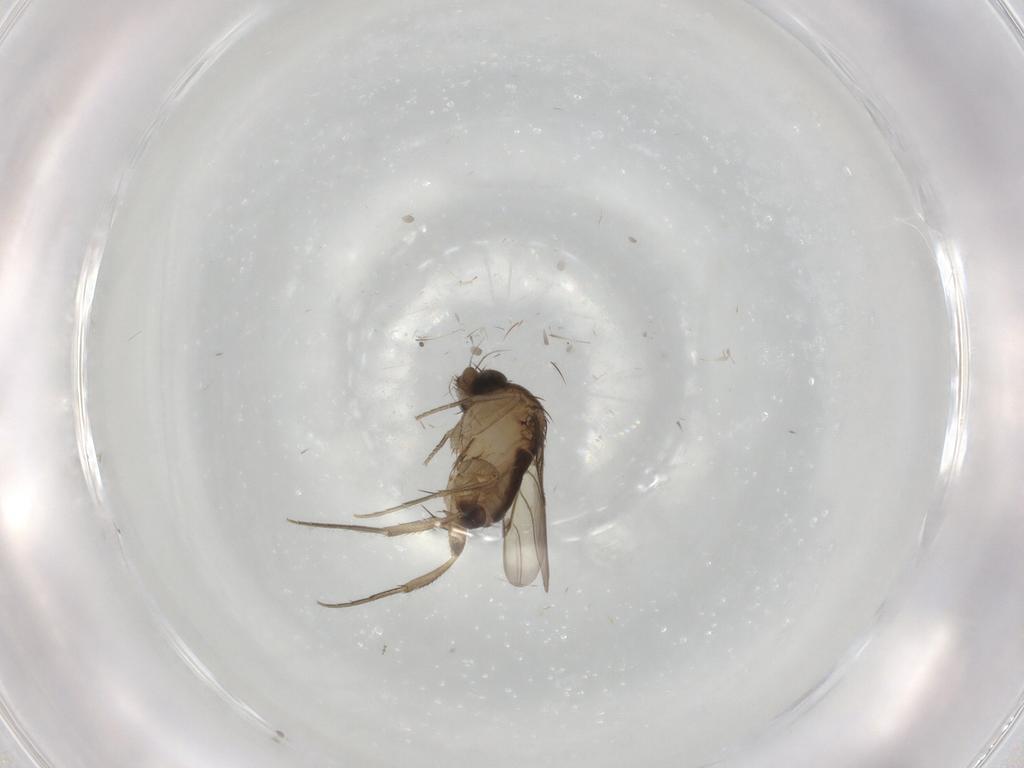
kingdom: Animalia
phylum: Arthropoda
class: Insecta
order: Diptera
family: Phoridae
